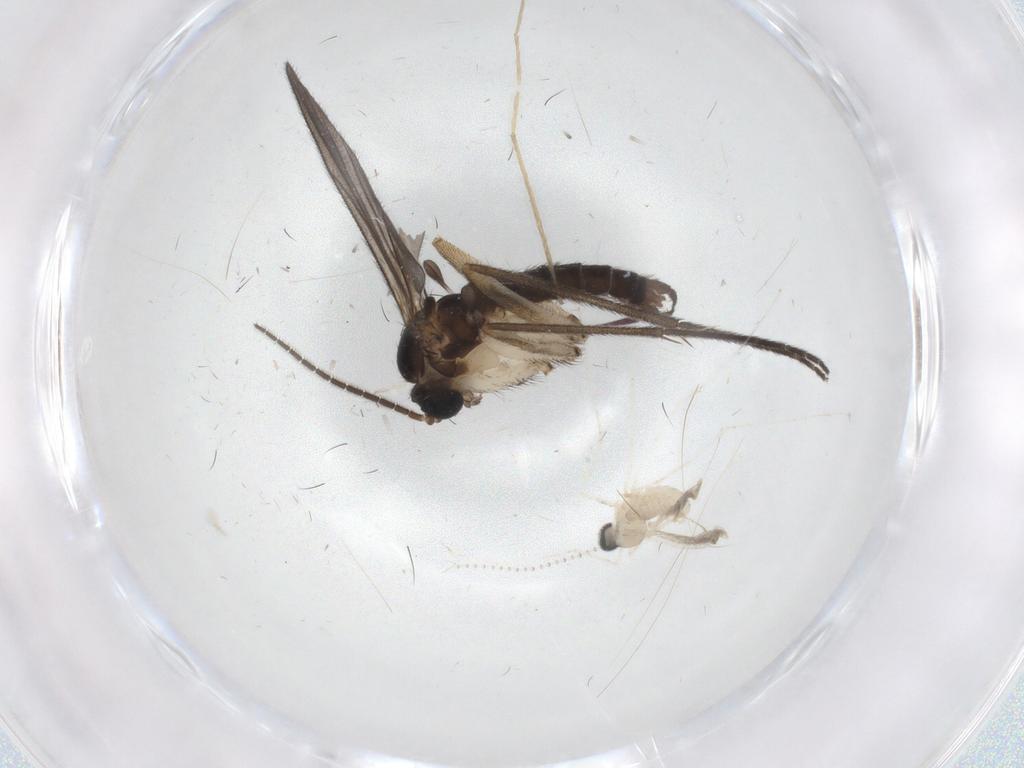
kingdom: Animalia
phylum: Arthropoda
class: Insecta
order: Diptera
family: Sciaridae
